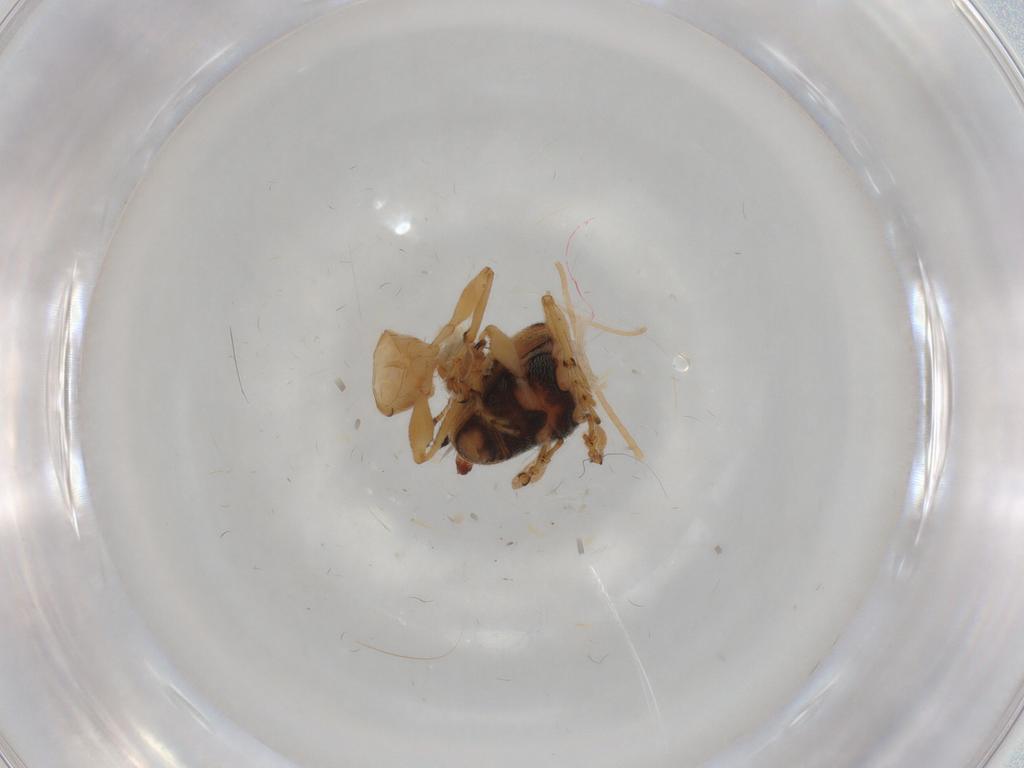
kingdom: Animalia
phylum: Arthropoda
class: Insecta
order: Coleoptera
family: Brentidae
